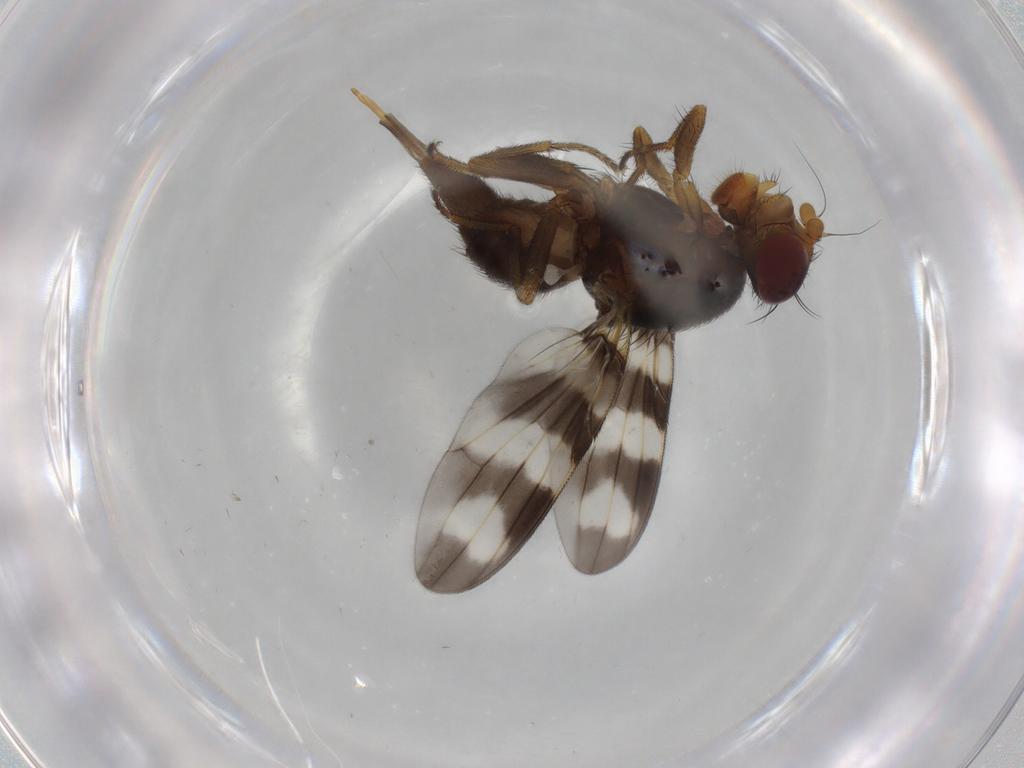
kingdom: Animalia
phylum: Arthropoda
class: Insecta
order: Diptera
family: Ulidiidae
